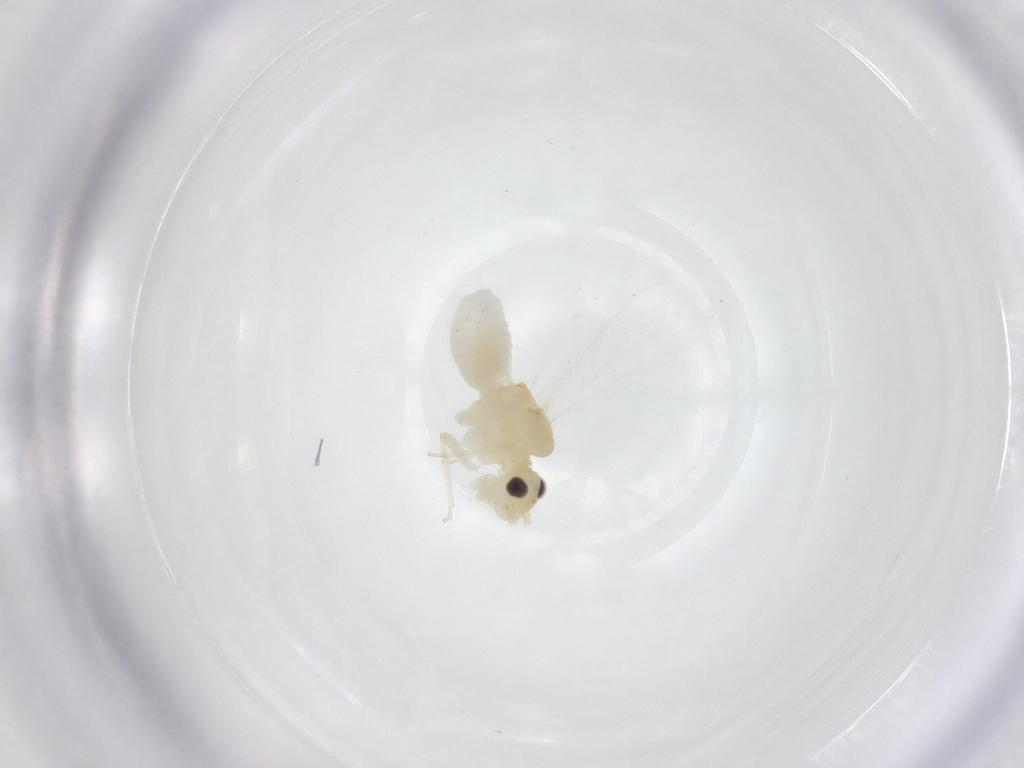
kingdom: Animalia
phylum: Arthropoda
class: Insecta
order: Psocodea
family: Caeciliusidae
